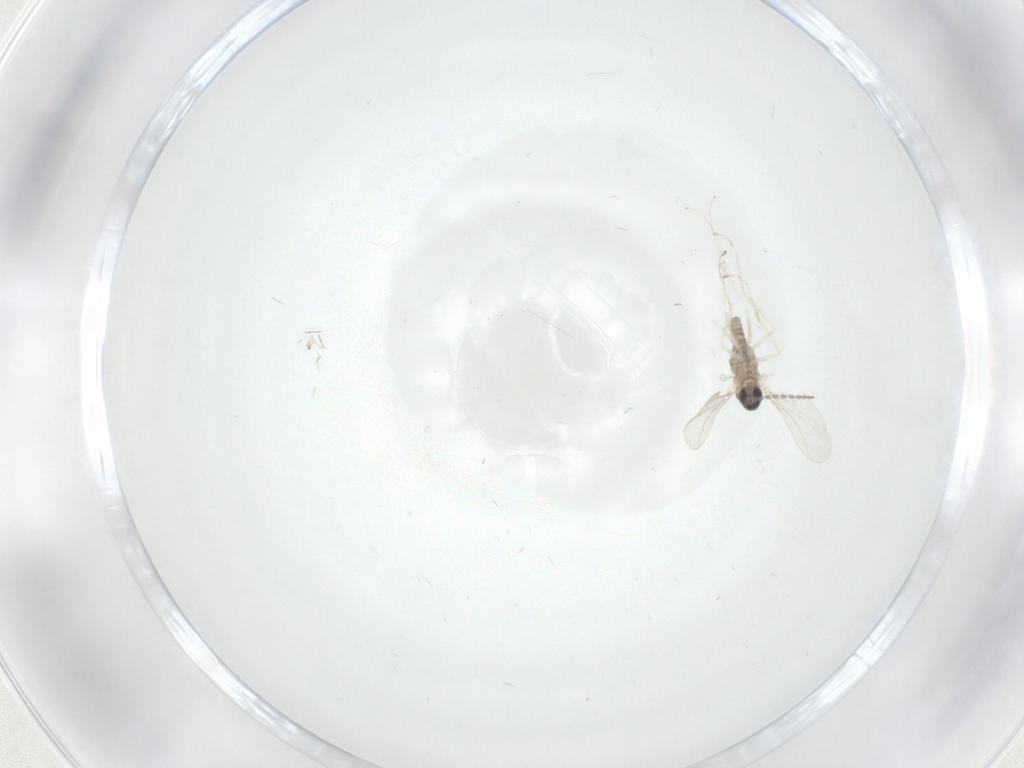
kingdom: Animalia
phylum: Arthropoda
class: Insecta
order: Diptera
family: Cecidomyiidae
